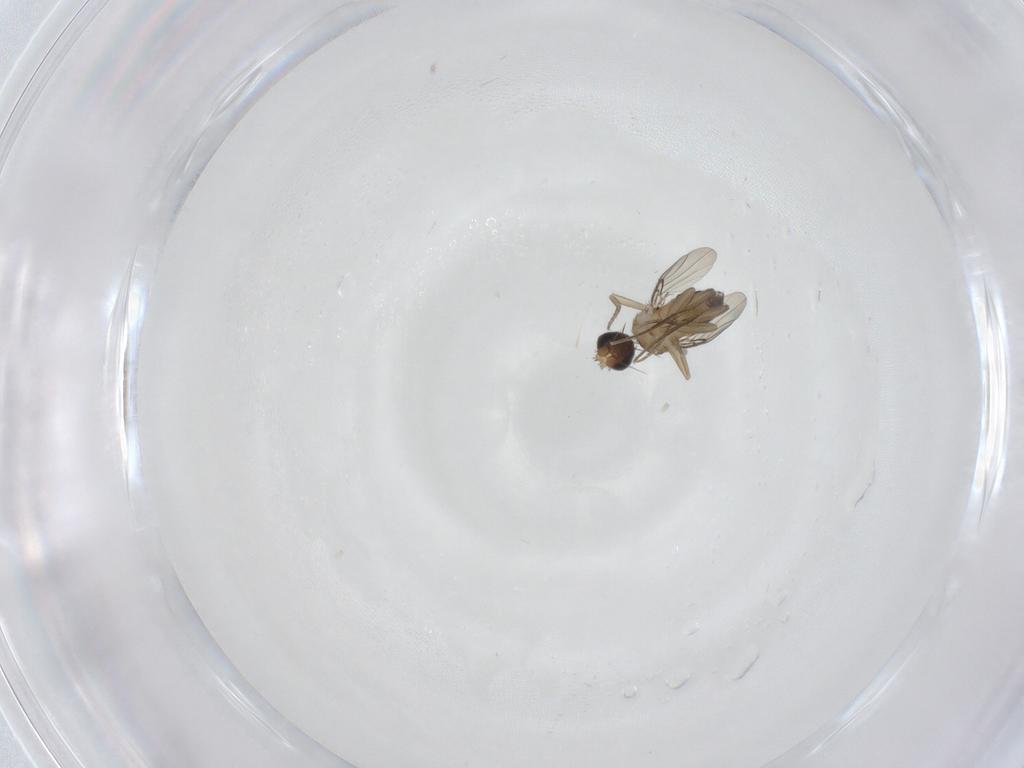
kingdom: Animalia
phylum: Arthropoda
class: Insecta
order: Diptera
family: Phoridae
